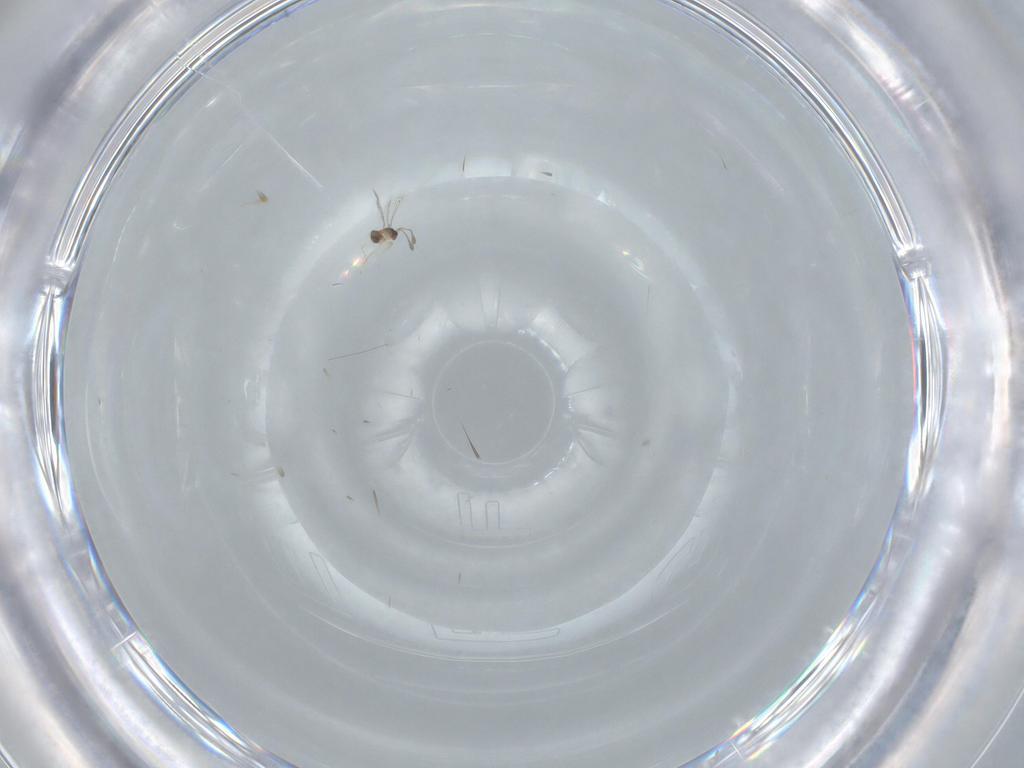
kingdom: Animalia
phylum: Arthropoda
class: Insecta
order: Hymenoptera
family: Mymaridae
